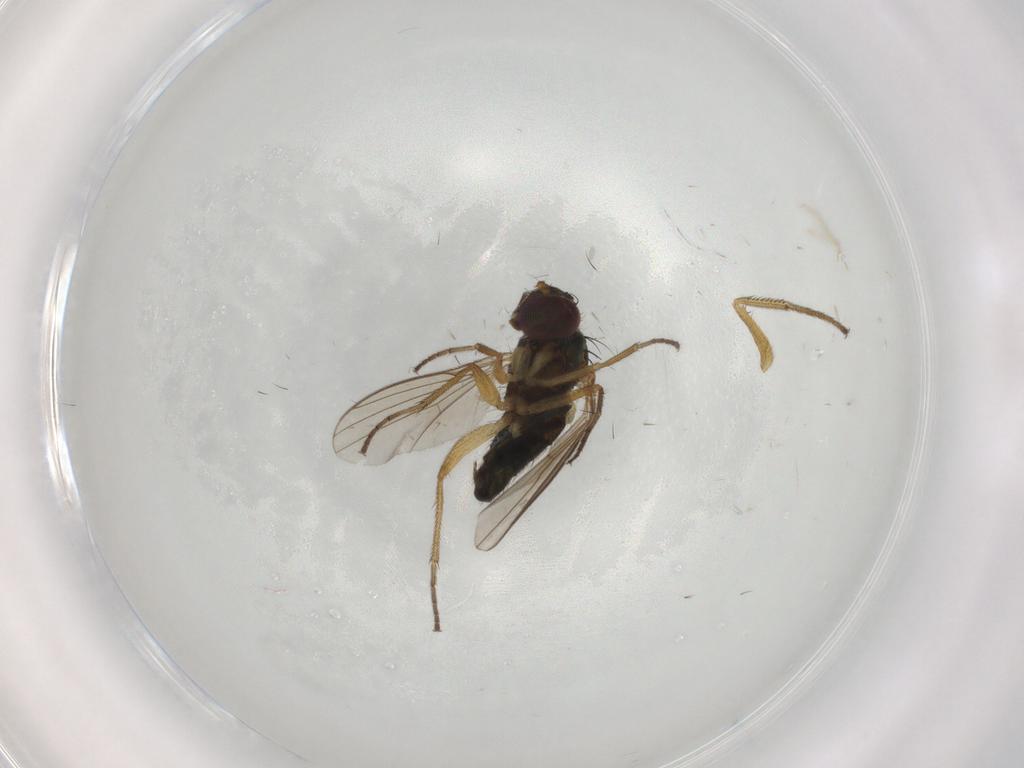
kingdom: Animalia
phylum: Arthropoda
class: Insecta
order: Diptera
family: Dolichopodidae
